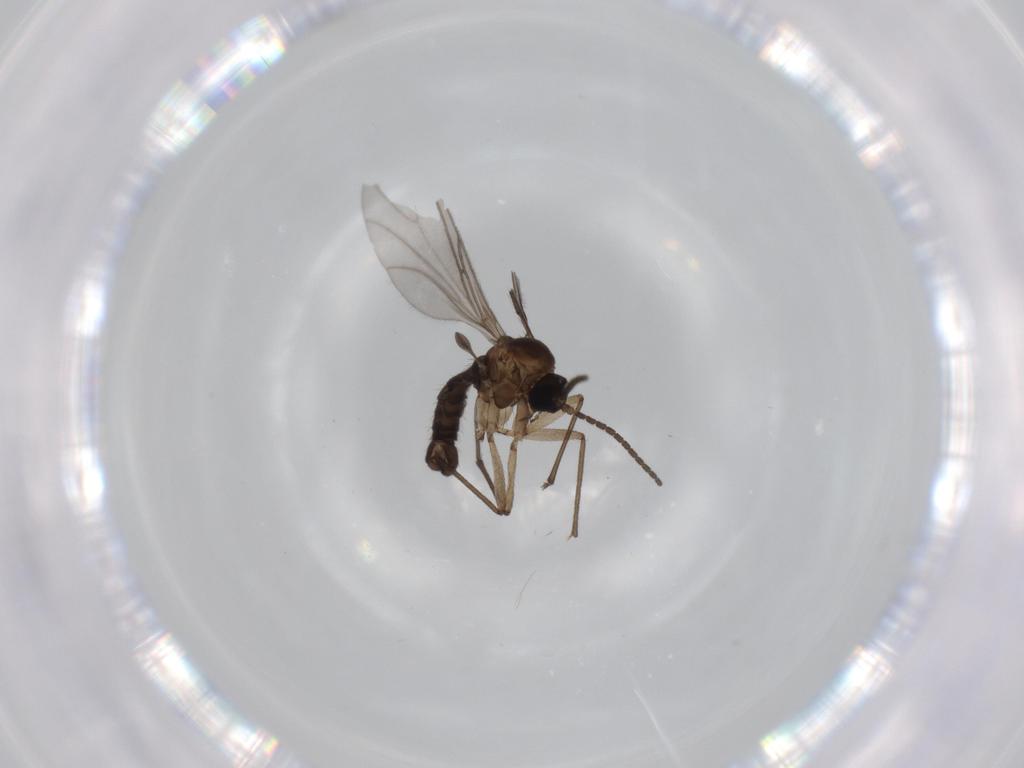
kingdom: Animalia
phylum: Arthropoda
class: Insecta
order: Diptera
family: Sciaridae
